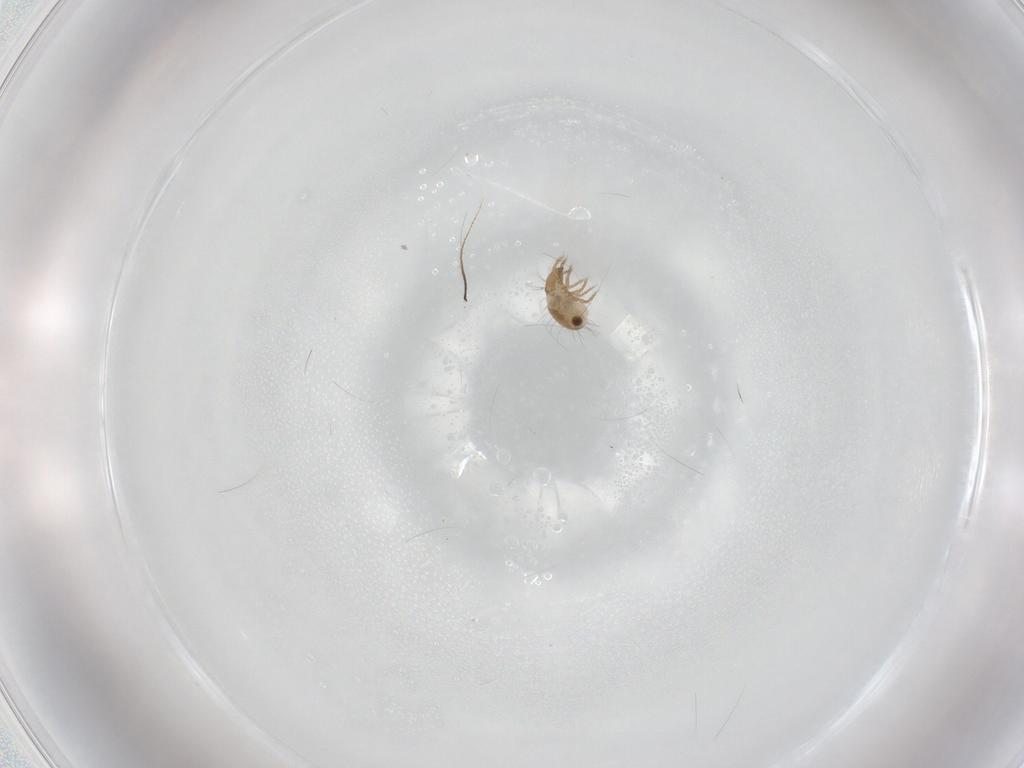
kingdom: Animalia
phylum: Arthropoda
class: Arachnida
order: Sarcoptiformes
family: Humerobatidae
